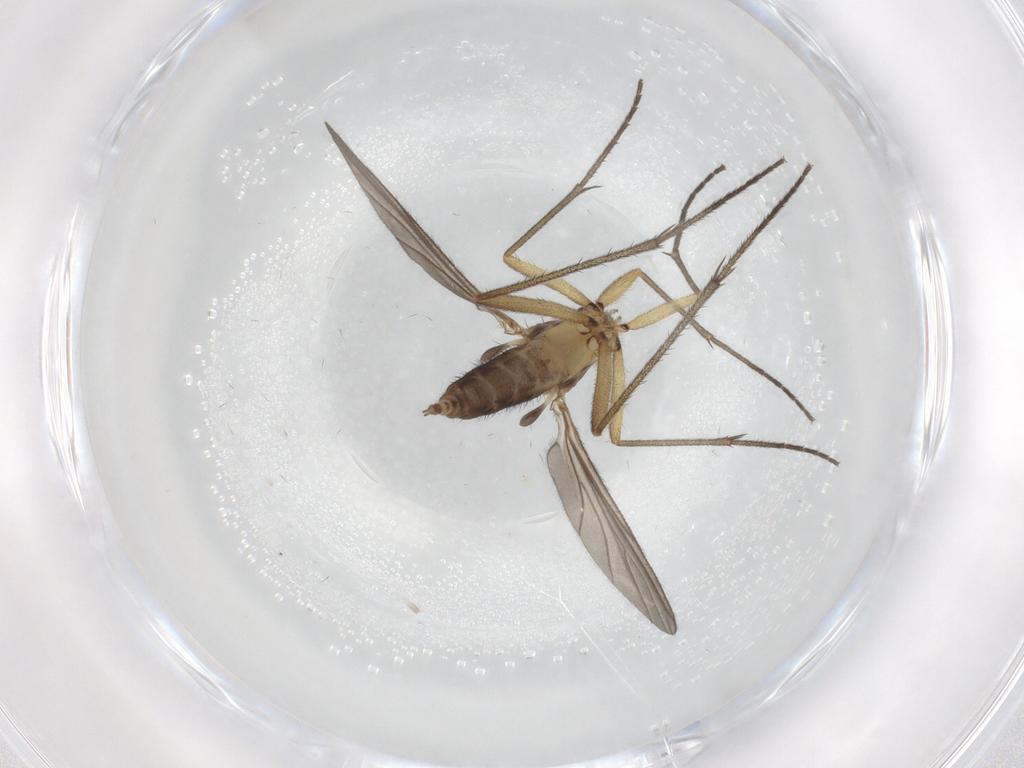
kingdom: Animalia
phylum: Arthropoda
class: Insecta
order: Diptera
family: Sciaridae
